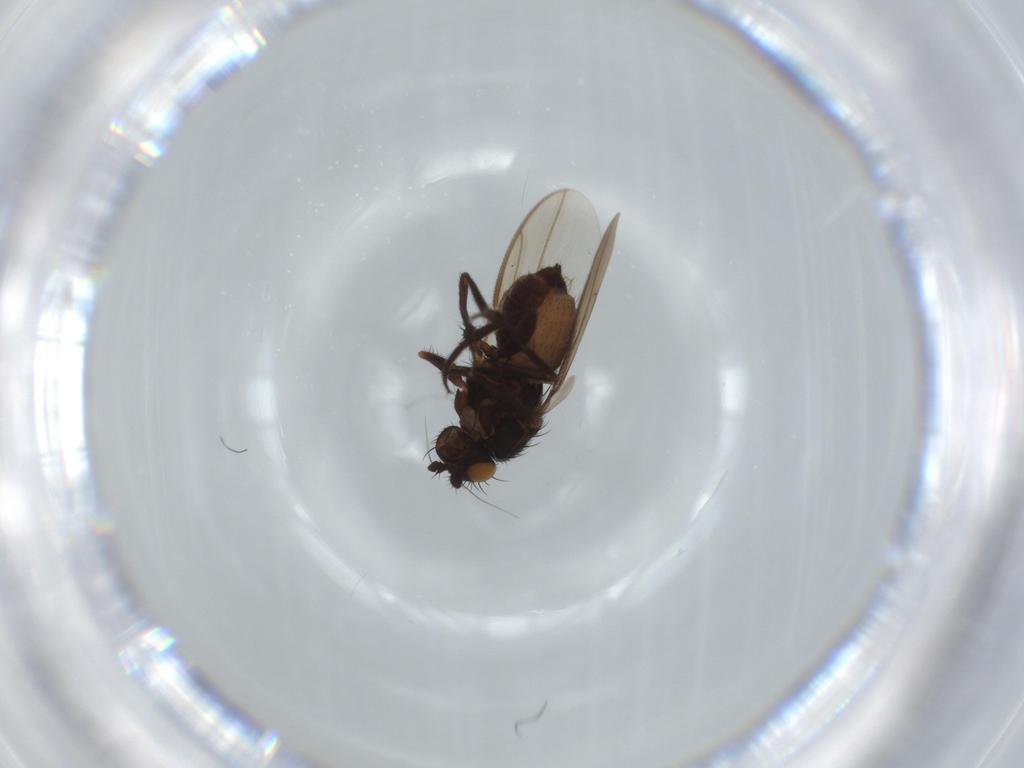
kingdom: Animalia
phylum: Arthropoda
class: Insecta
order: Diptera
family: Sphaeroceridae
